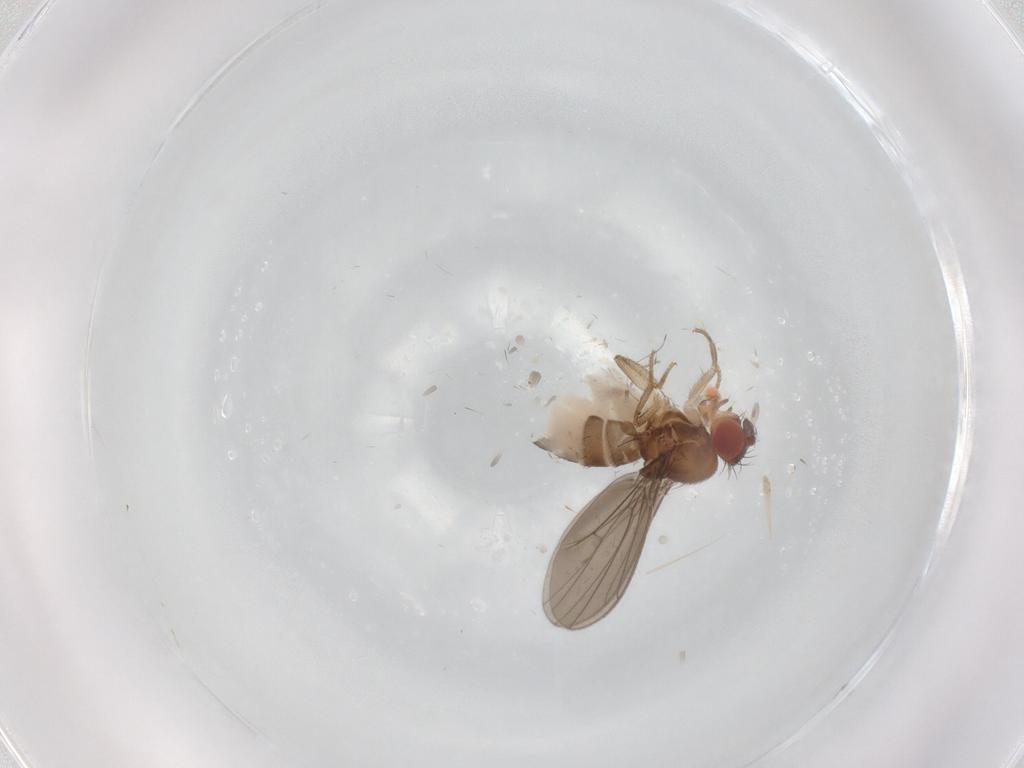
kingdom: Animalia
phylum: Arthropoda
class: Insecta
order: Diptera
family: Drosophilidae
